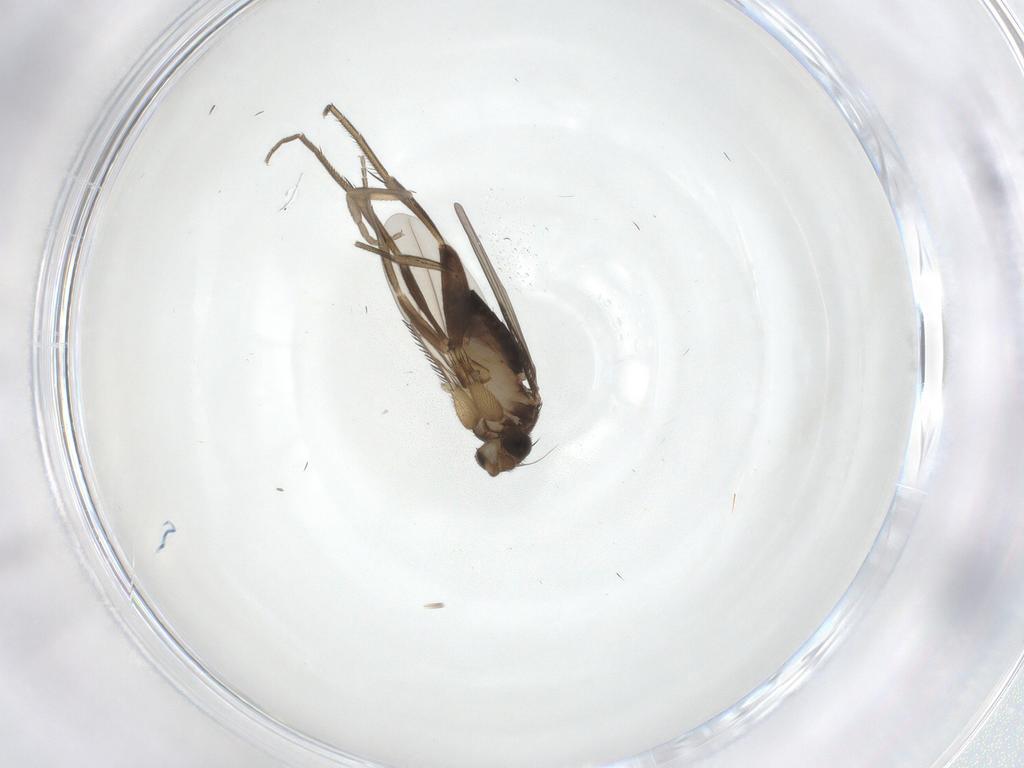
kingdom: Animalia
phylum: Arthropoda
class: Insecta
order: Diptera
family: Phoridae
